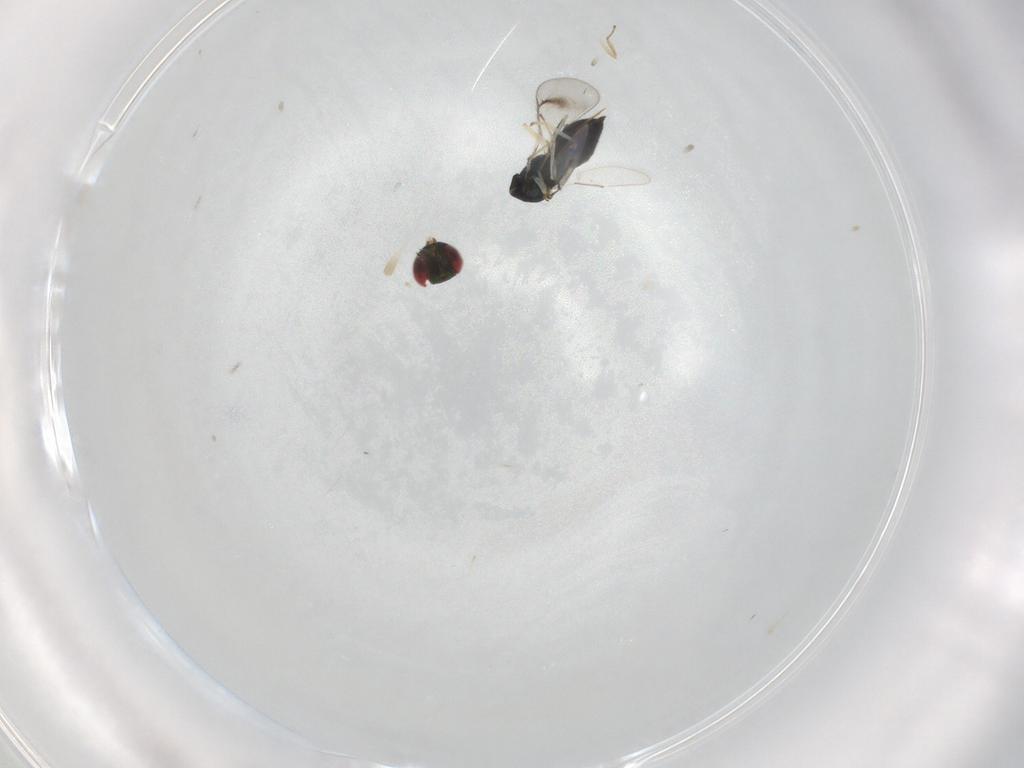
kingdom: Animalia
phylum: Arthropoda
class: Insecta
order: Hymenoptera
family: Eulophidae
